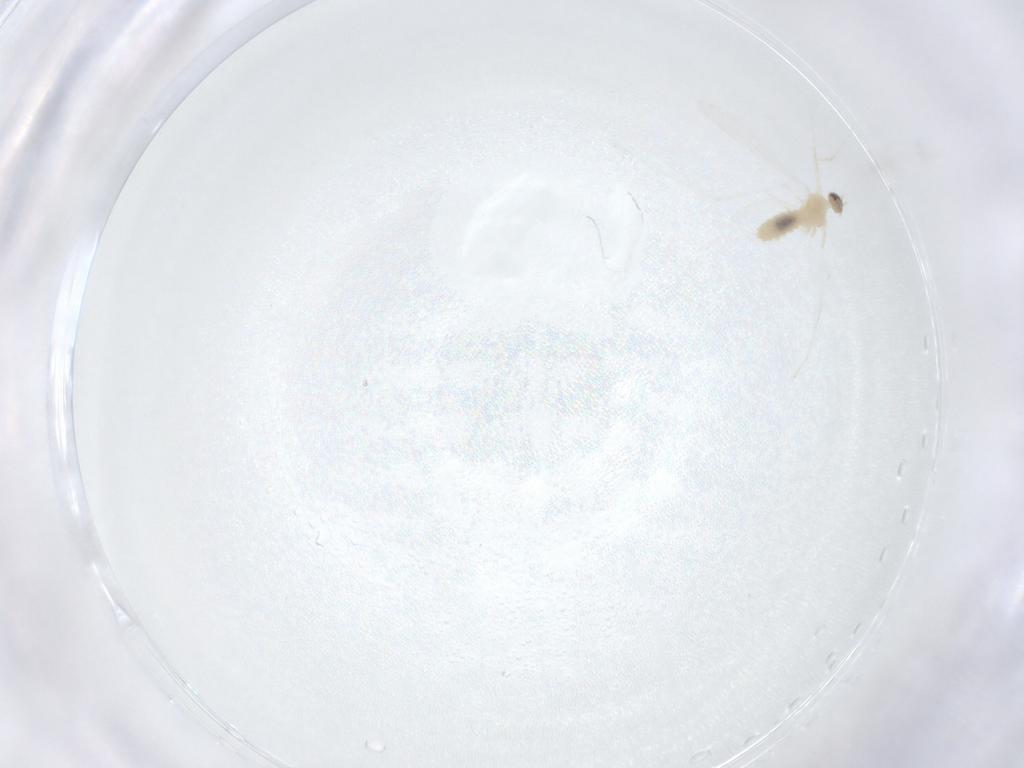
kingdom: Animalia
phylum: Arthropoda
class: Insecta
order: Diptera
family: Cecidomyiidae
